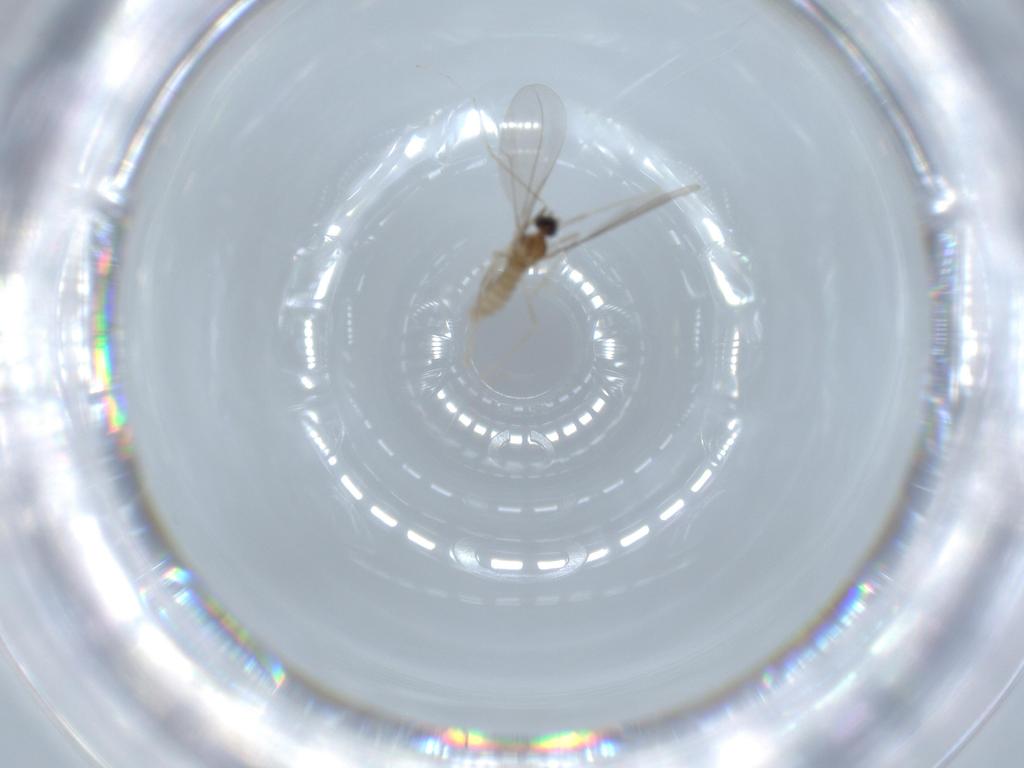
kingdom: Animalia
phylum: Arthropoda
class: Insecta
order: Diptera
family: Cecidomyiidae
